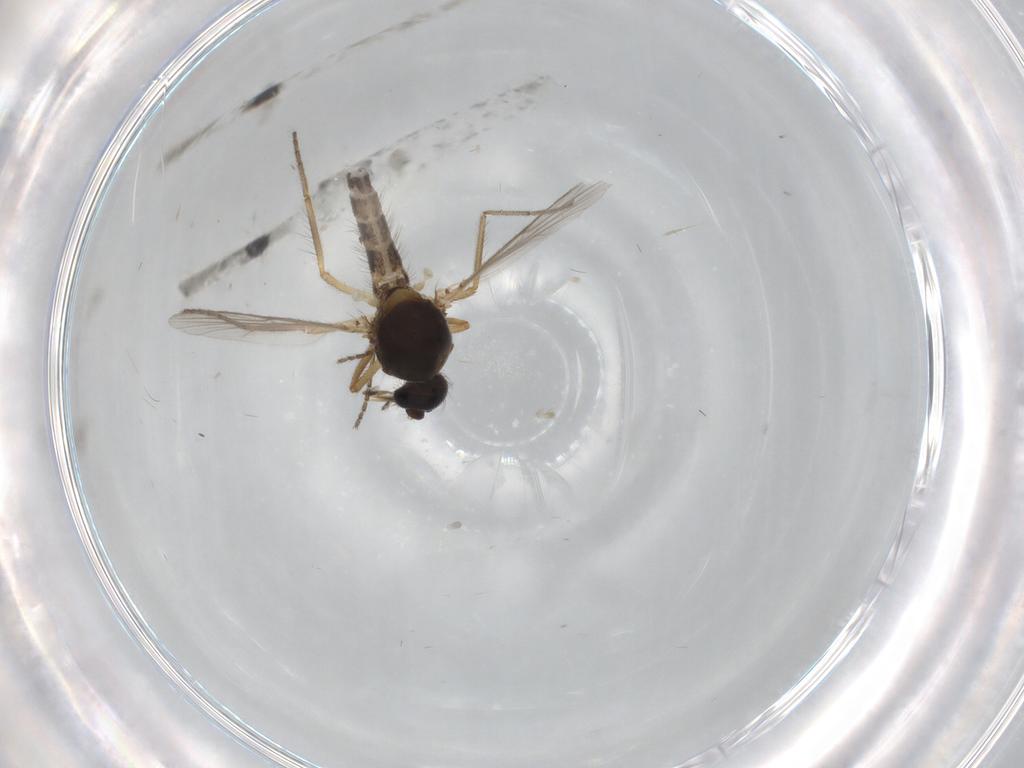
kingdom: Animalia
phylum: Arthropoda
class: Insecta
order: Diptera
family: Ceratopogonidae
